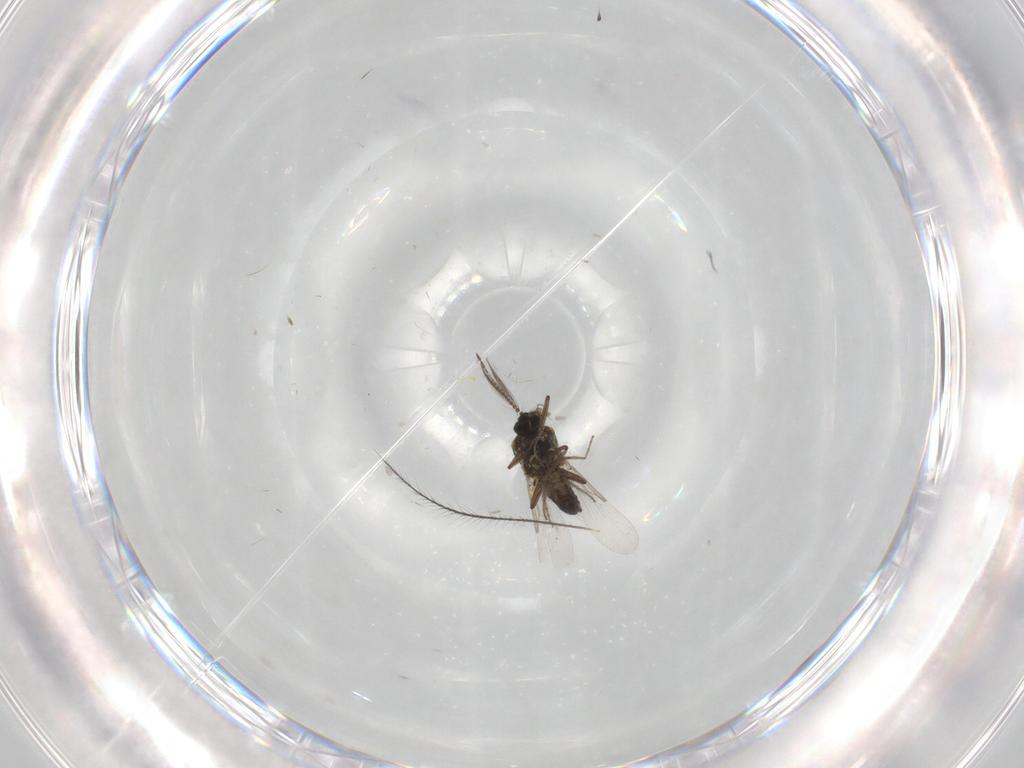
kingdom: Animalia
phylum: Arthropoda
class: Insecta
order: Diptera
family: Ceratopogonidae
